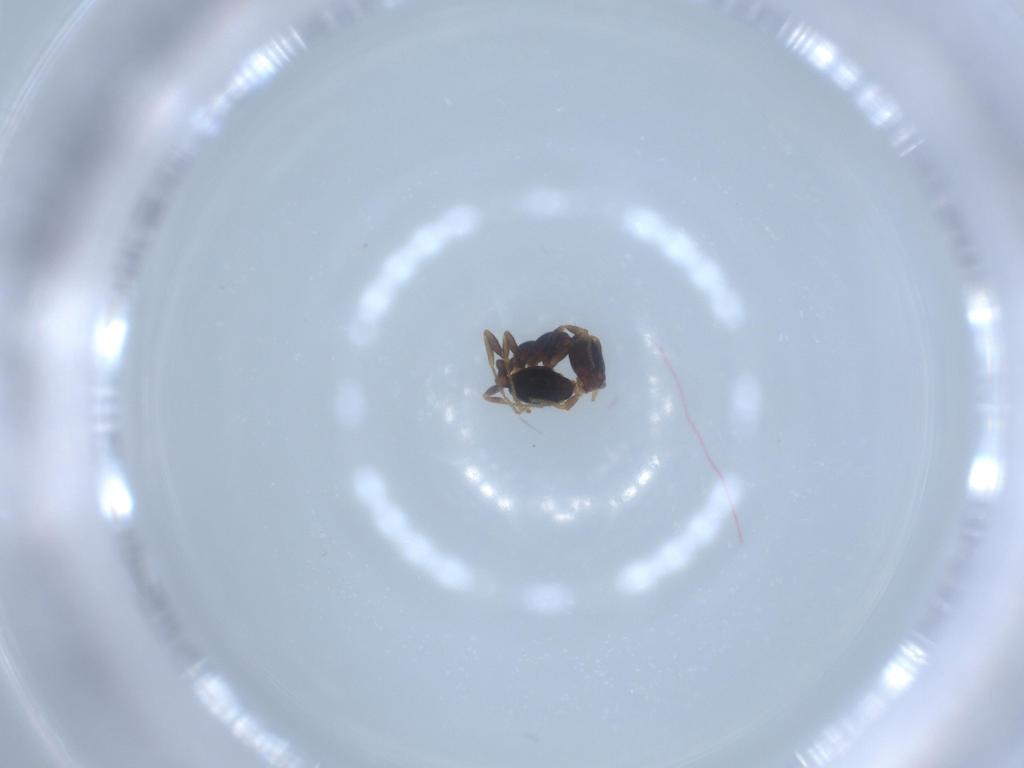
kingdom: Animalia
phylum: Arthropoda
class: Insecta
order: Hymenoptera
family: Formicidae
